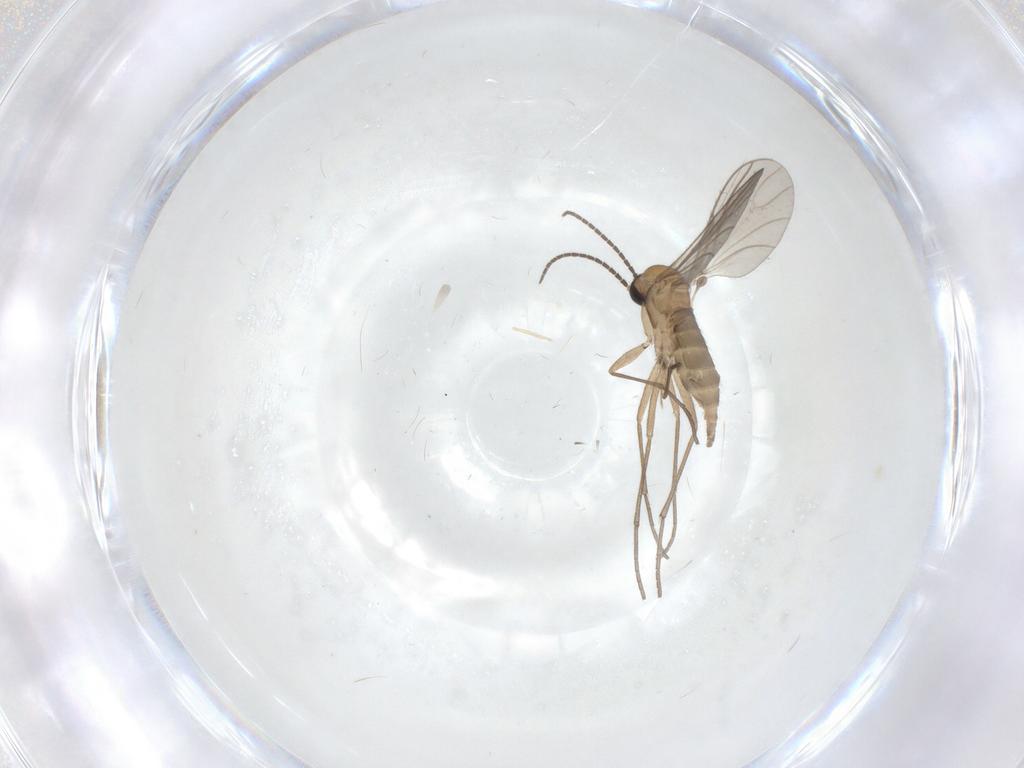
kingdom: Animalia
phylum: Arthropoda
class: Insecta
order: Diptera
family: Sciaridae
